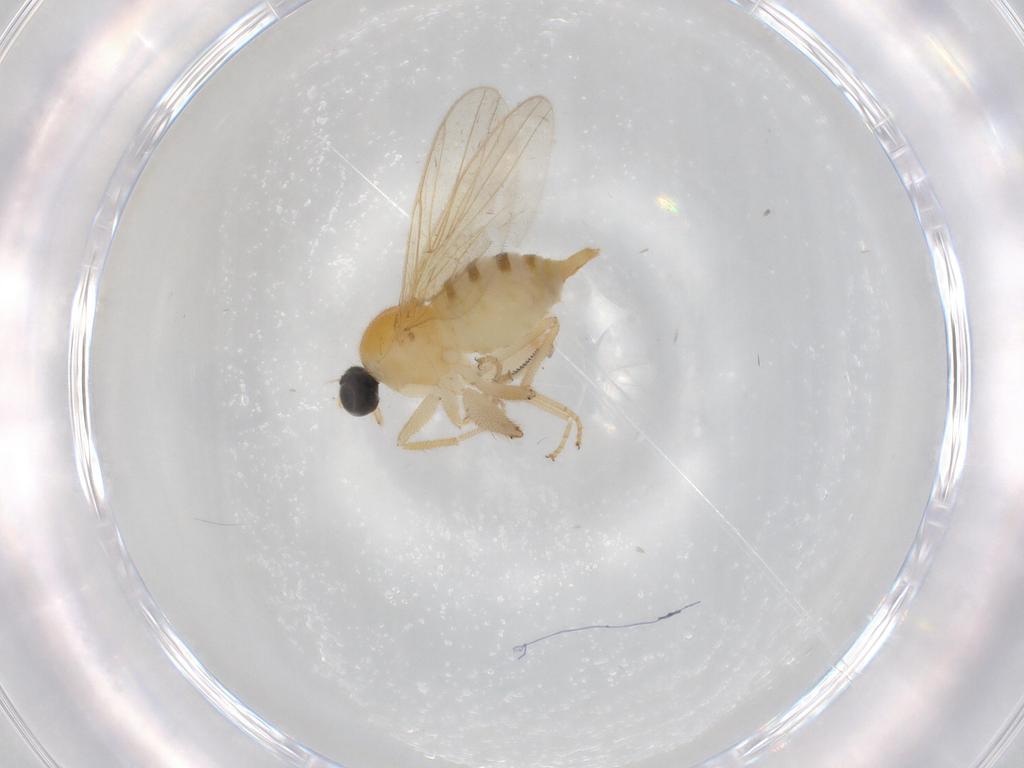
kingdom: Animalia
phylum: Arthropoda
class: Insecta
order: Diptera
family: Hybotidae
